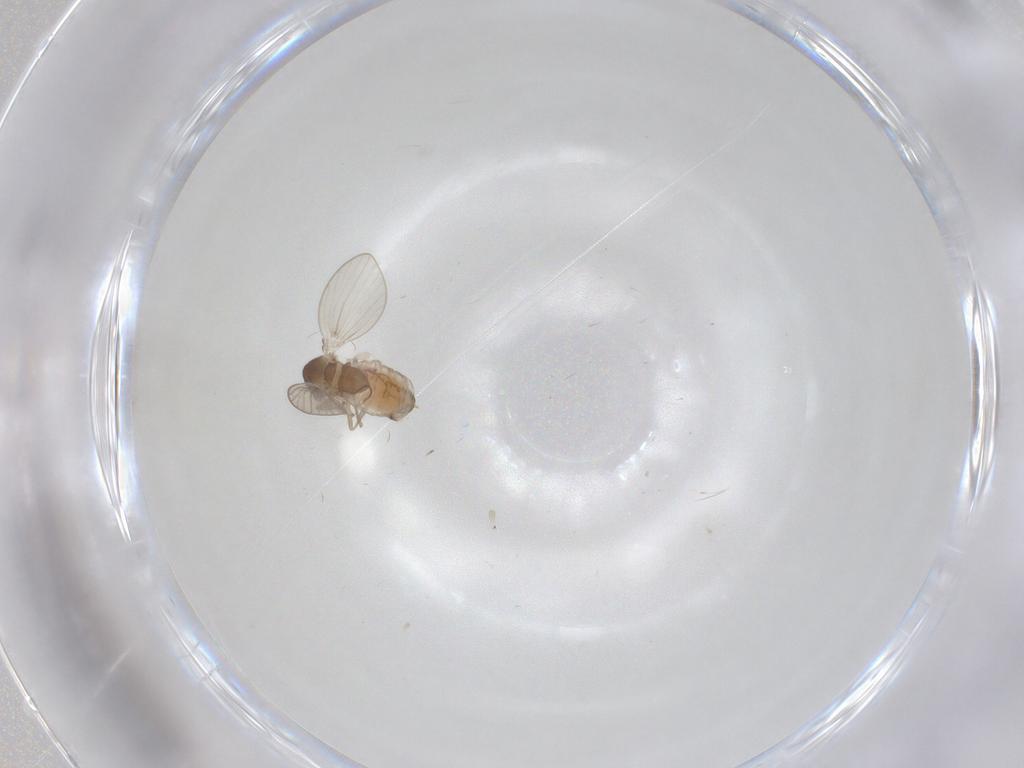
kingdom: Animalia
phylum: Arthropoda
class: Insecta
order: Diptera
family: Psychodidae
